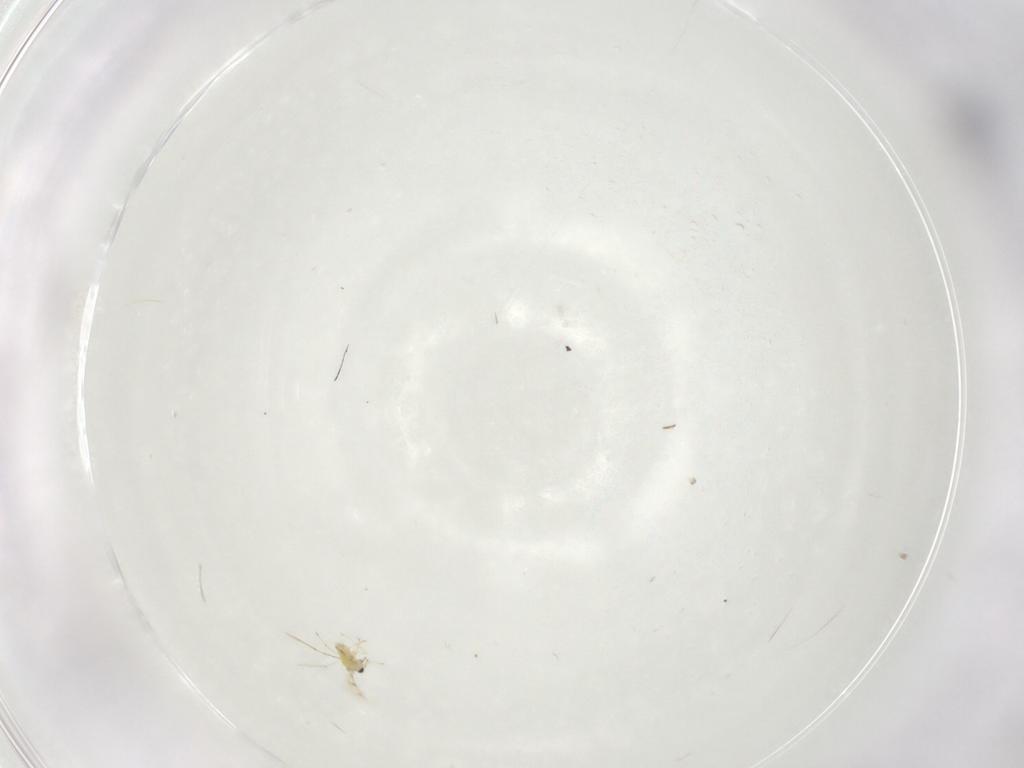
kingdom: Animalia
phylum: Arthropoda
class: Insecta
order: Hymenoptera
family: Trichogrammatidae
